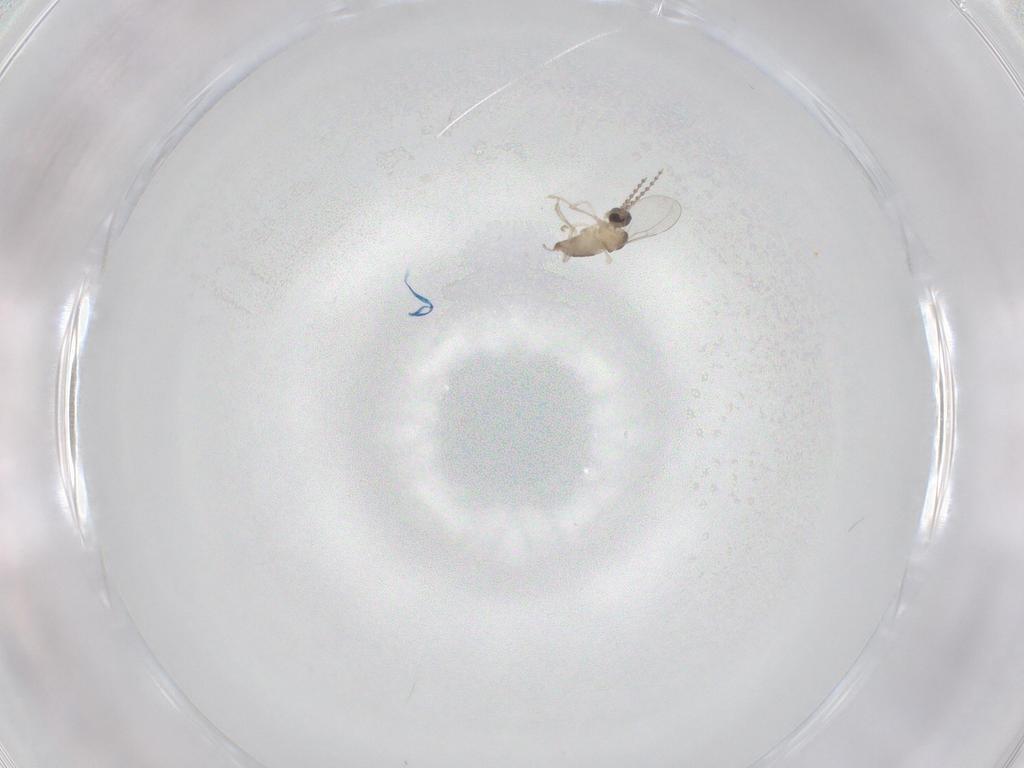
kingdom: Animalia
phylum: Arthropoda
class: Insecta
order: Diptera
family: Cecidomyiidae
